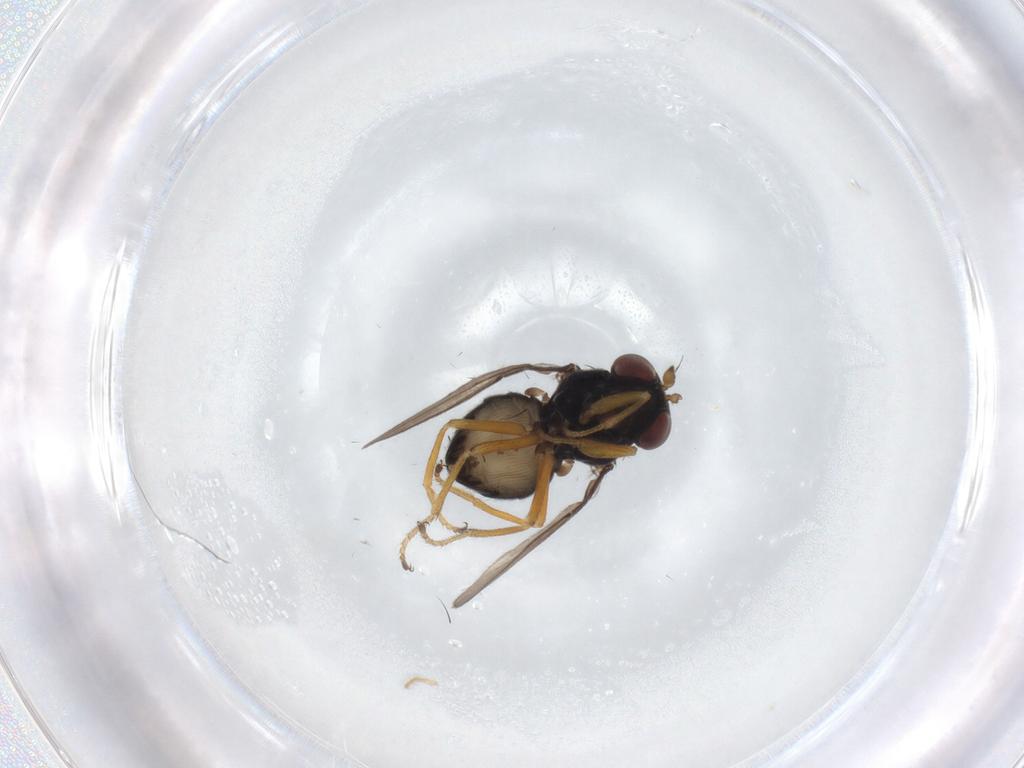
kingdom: Animalia
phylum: Arthropoda
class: Insecta
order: Diptera
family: Ephydridae
